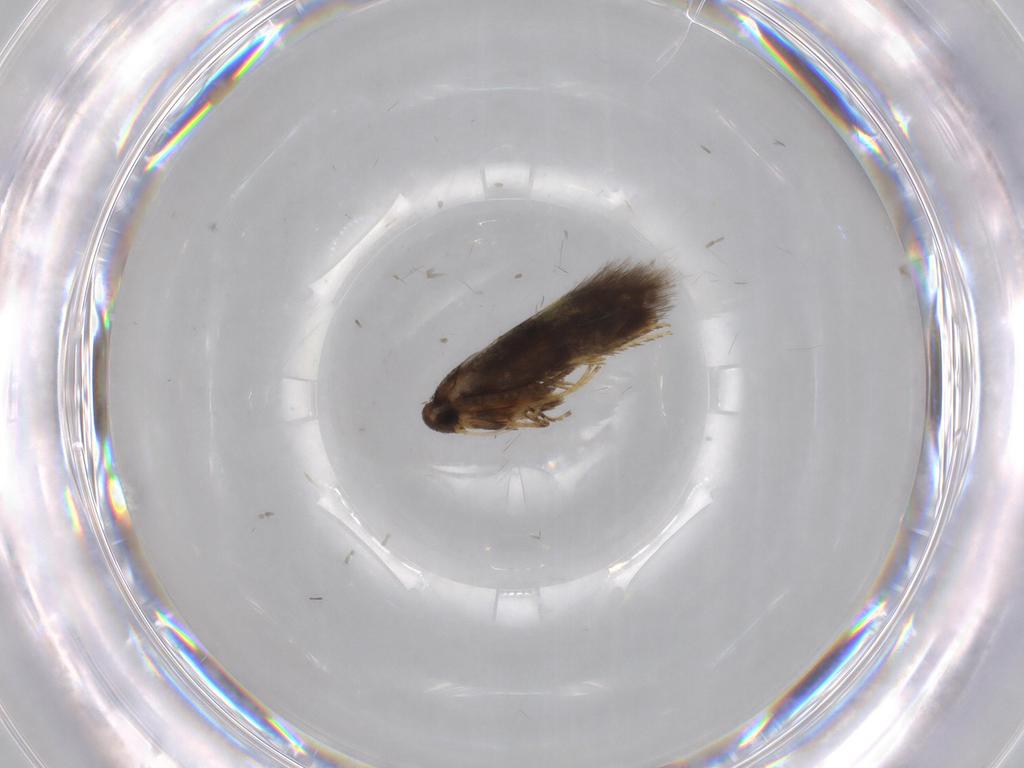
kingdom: Animalia
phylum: Arthropoda
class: Insecta
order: Lepidoptera
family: Heliozelidae
